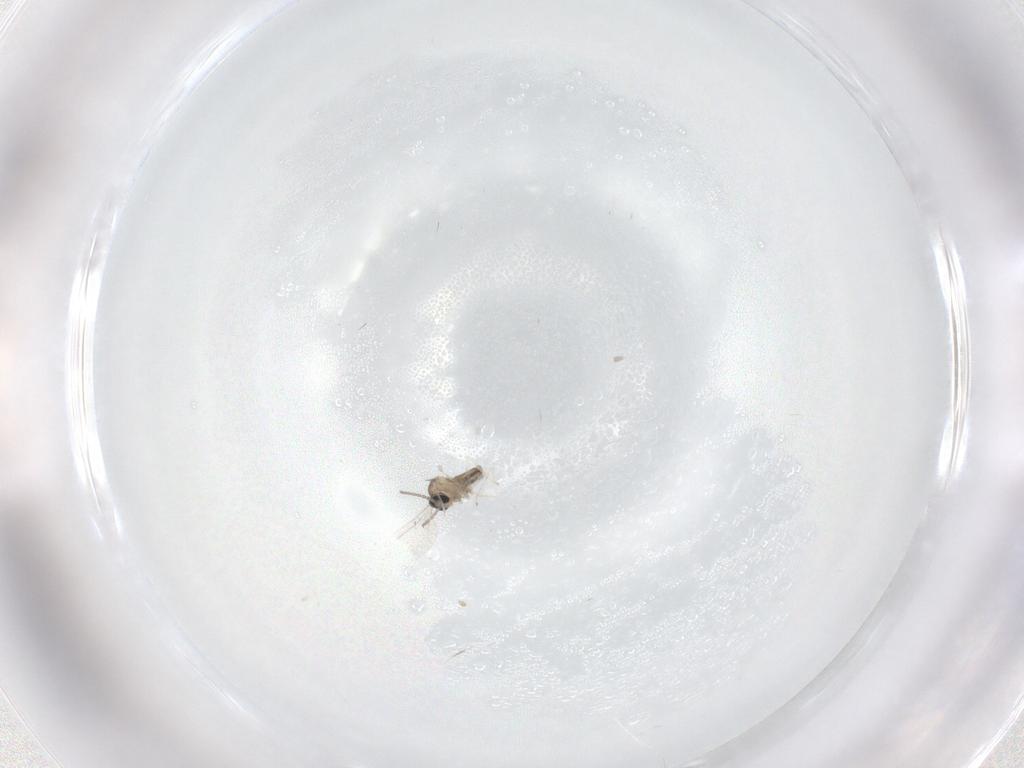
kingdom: Animalia
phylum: Arthropoda
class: Insecta
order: Diptera
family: Cecidomyiidae
